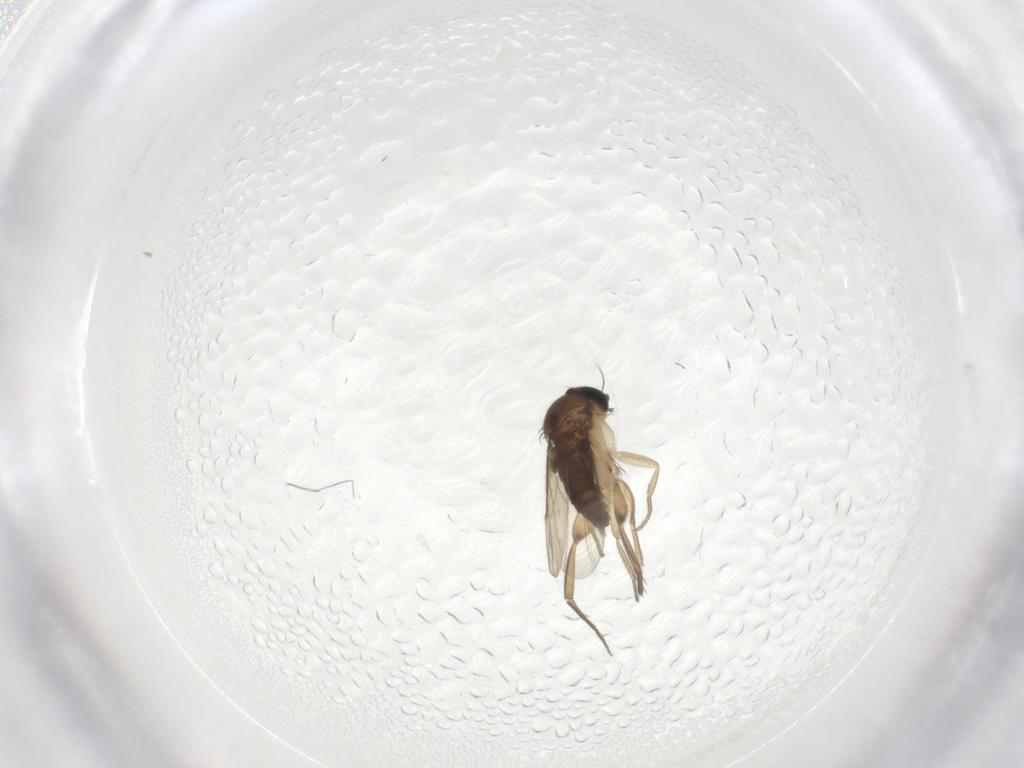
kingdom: Animalia
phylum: Arthropoda
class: Insecta
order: Diptera
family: Phoridae
